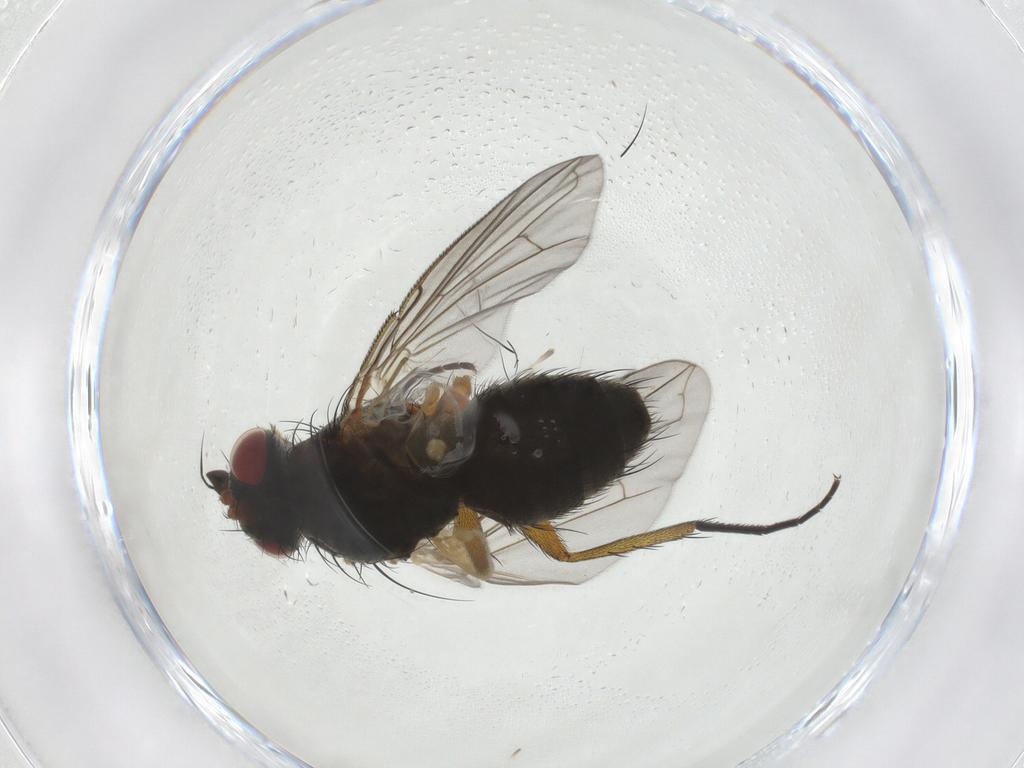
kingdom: Animalia
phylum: Arthropoda
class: Insecta
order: Diptera
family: Anthomyiidae
